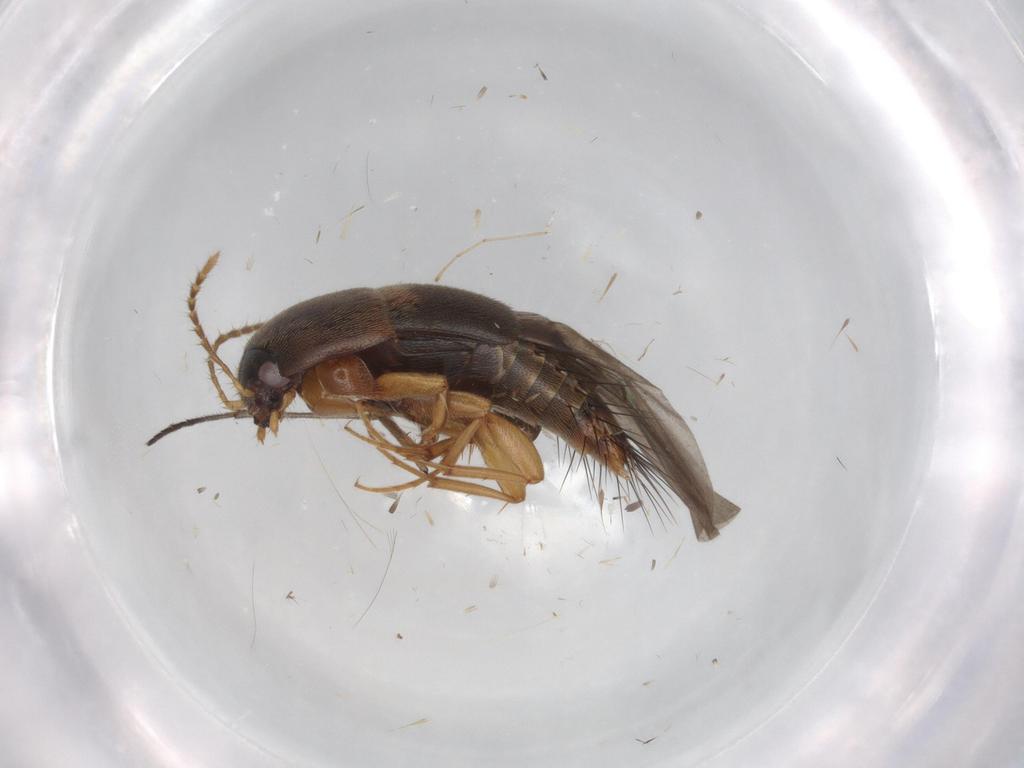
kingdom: Animalia
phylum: Arthropoda
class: Insecta
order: Coleoptera
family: Staphylinidae
